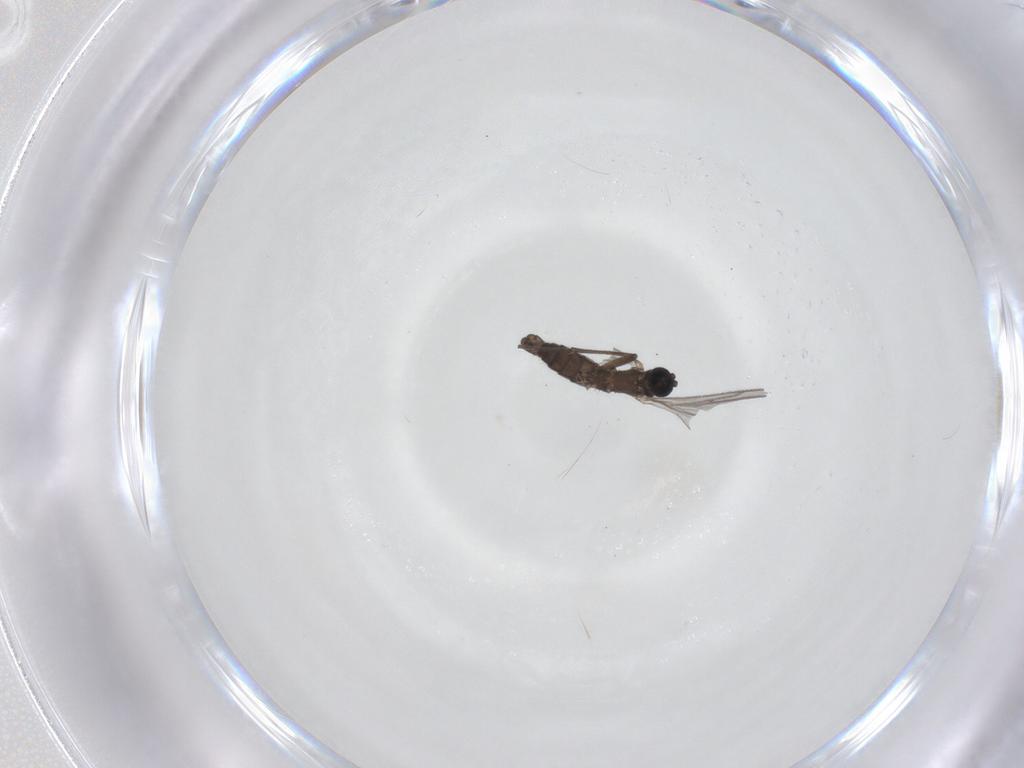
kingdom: Animalia
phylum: Arthropoda
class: Insecta
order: Diptera
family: Sciaridae
